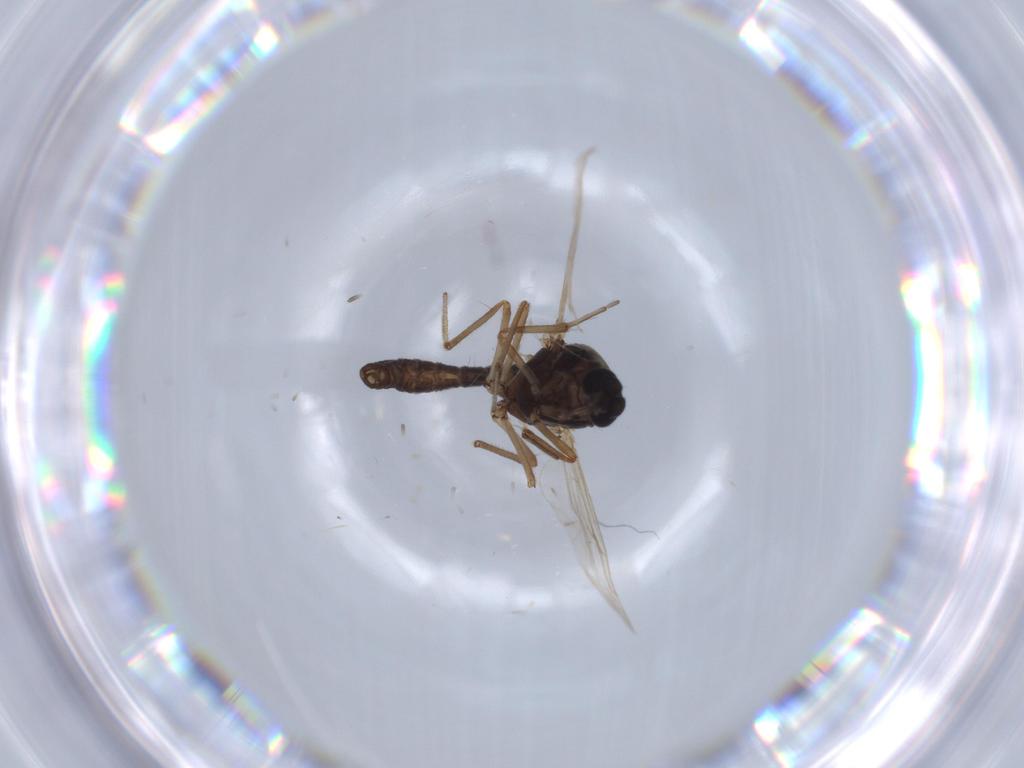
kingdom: Animalia
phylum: Arthropoda
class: Insecta
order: Diptera
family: Ceratopogonidae
